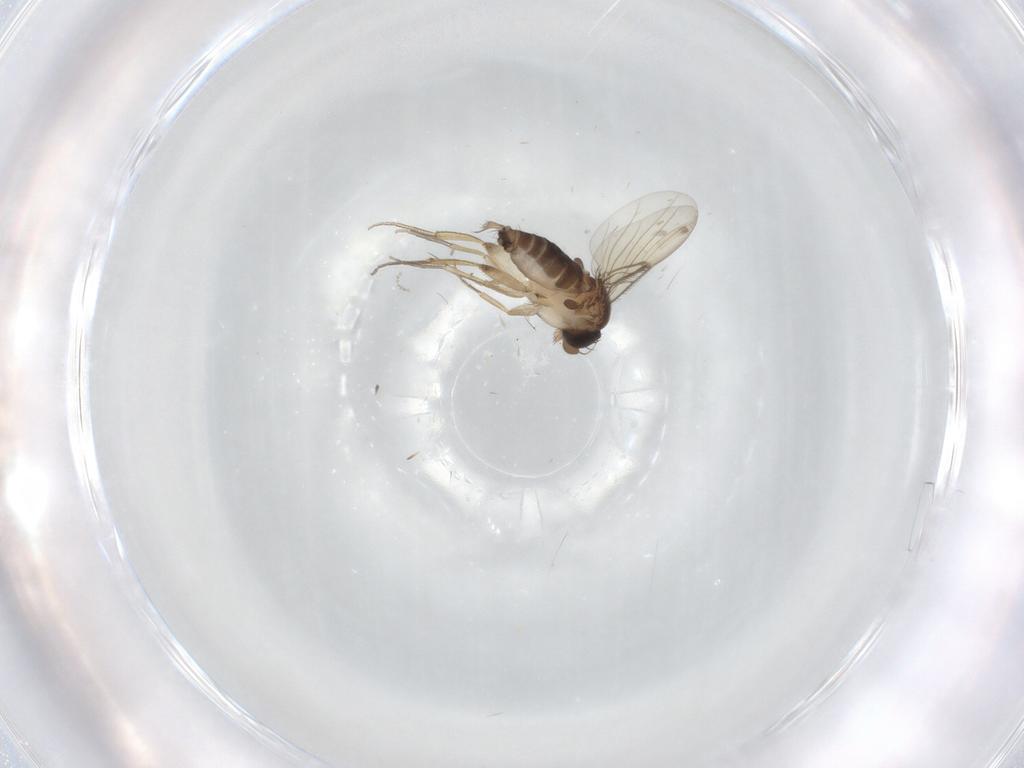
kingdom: Animalia
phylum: Arthropoda
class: Insecta
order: Diptera
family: Cecidomyiidae
